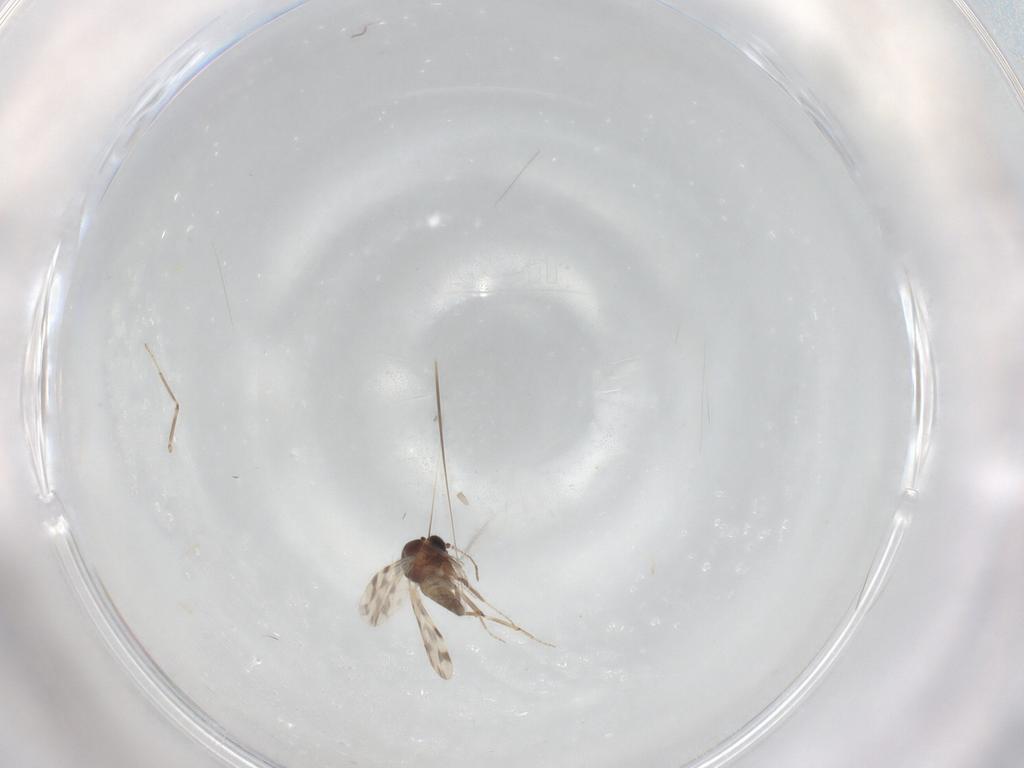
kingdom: Animalia
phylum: Arthropoda
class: Insecta
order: Diptera
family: Ceratopogonidae
